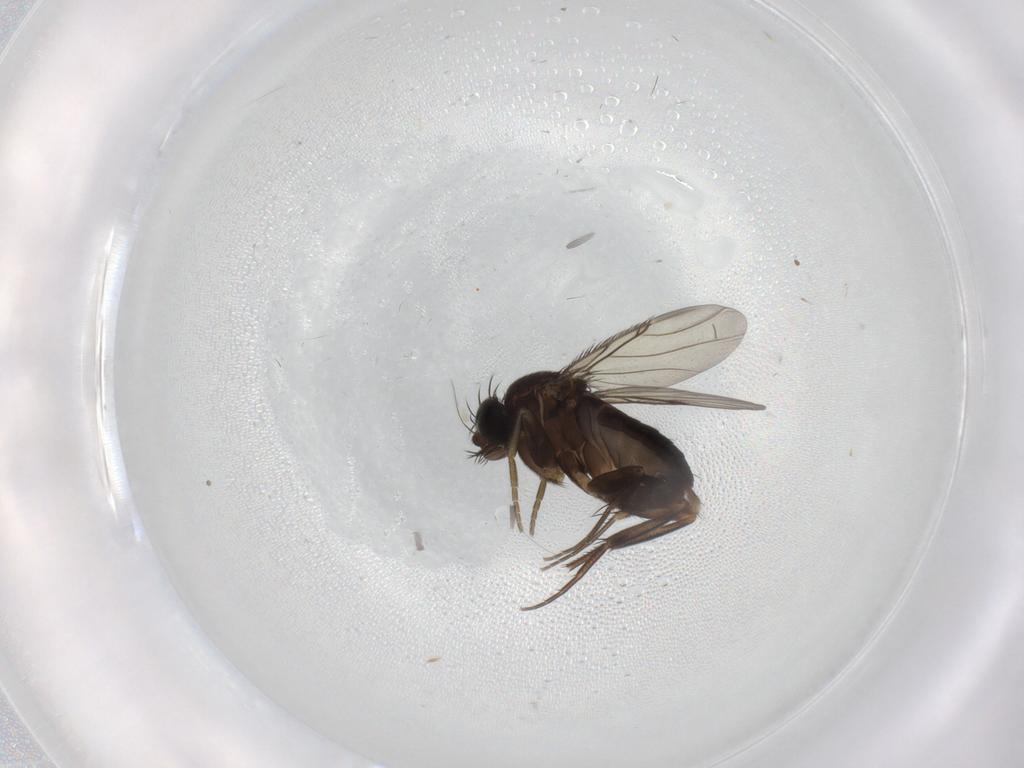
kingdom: Animalia
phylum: Arthropoda
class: Insecta
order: Diptera
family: Phoridae
